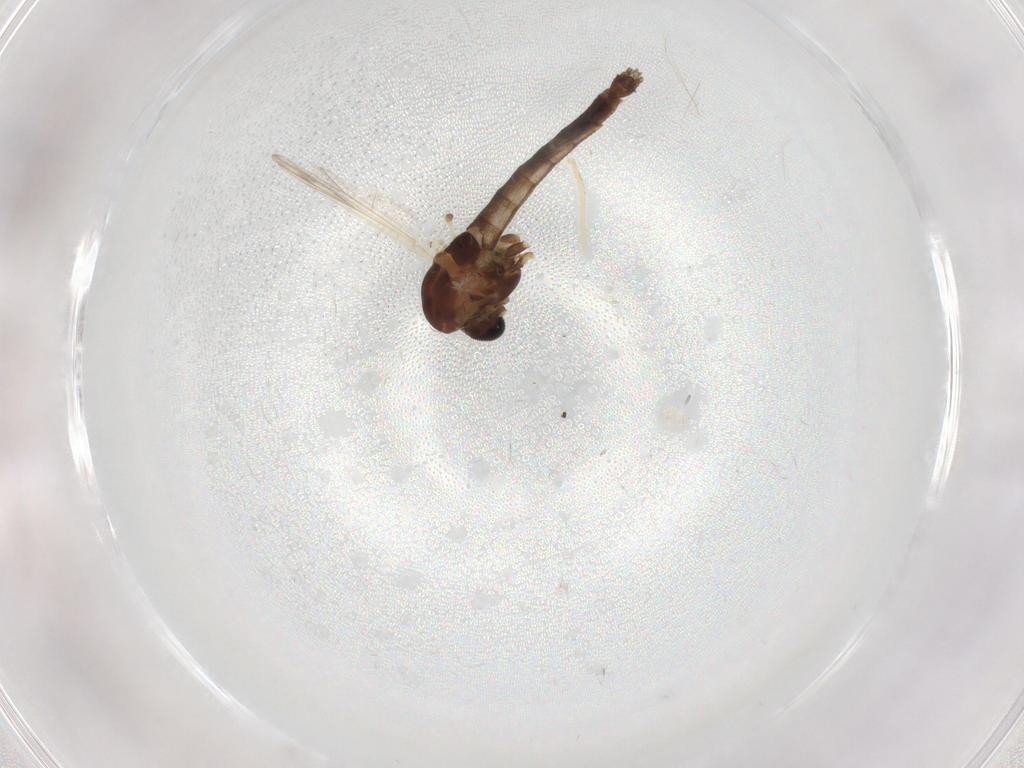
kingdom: Animalia
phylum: Arthropoda
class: Insecta
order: Diptera
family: Chironomidae
